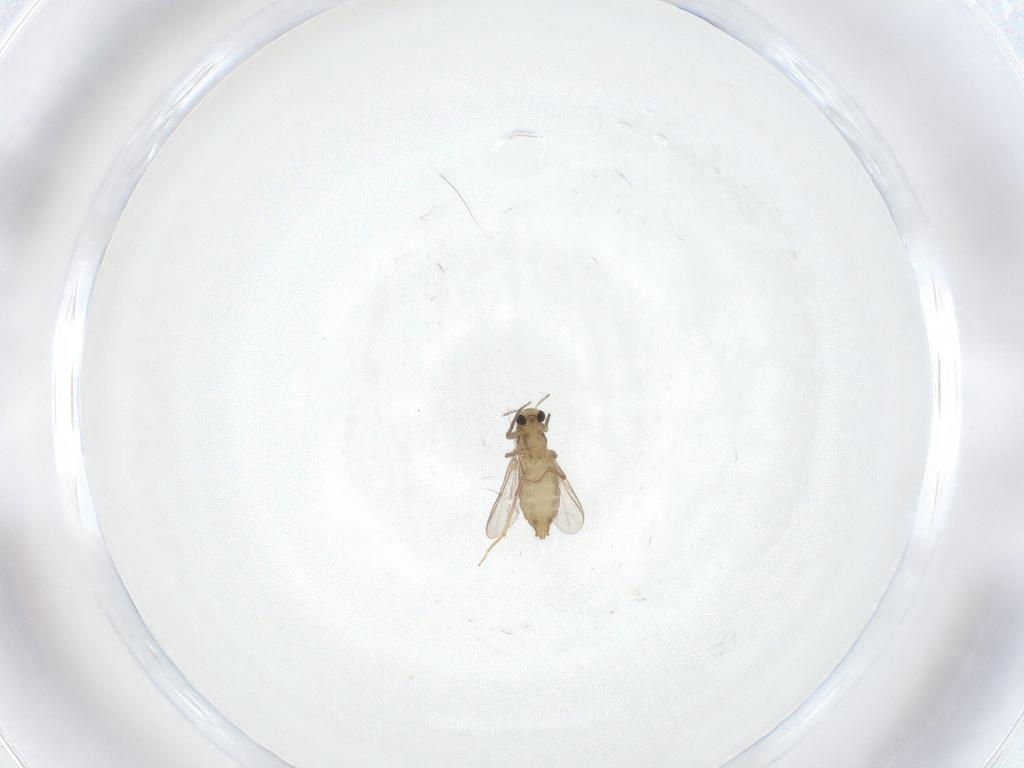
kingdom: Animalia
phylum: Arthropoda
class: Insecta
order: Diptera
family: Chironomidae
